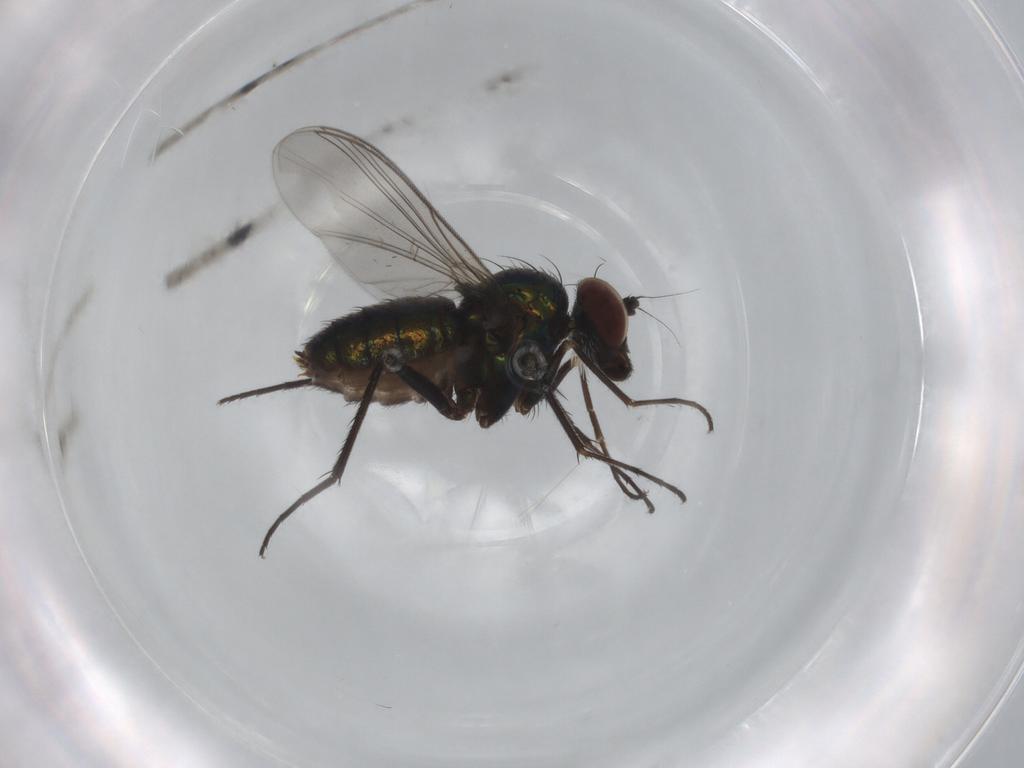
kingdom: Animalia
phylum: Arthropoda
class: Insecta
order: Diptera
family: Dolichopodidae
